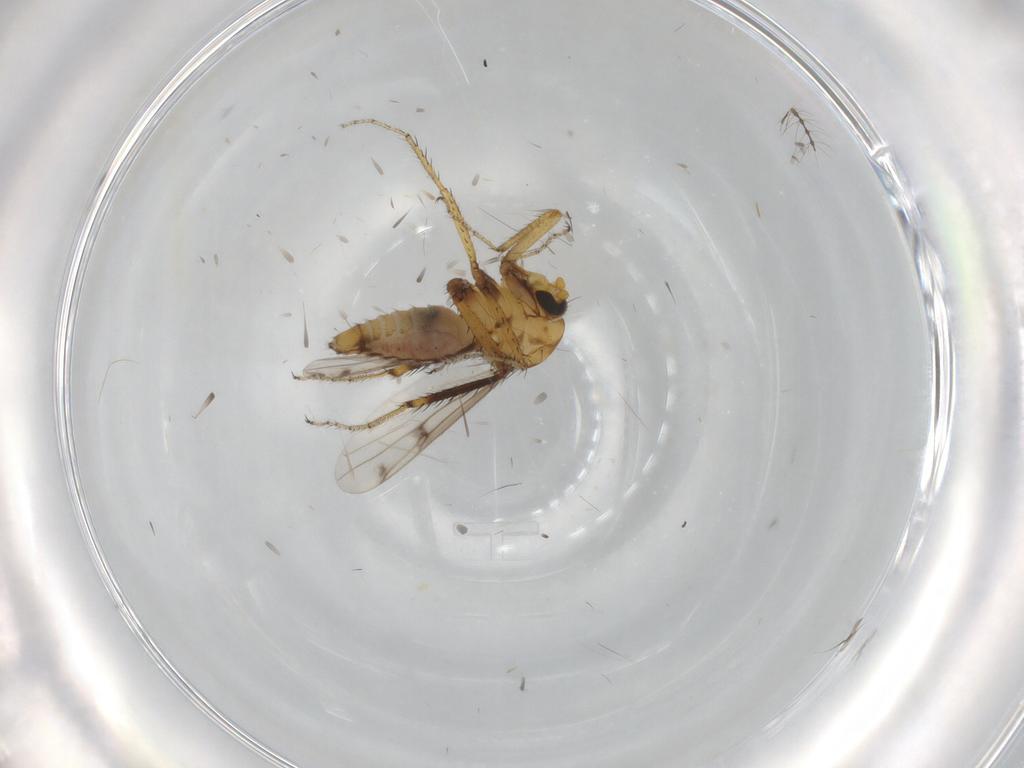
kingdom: Animalia
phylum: Arthropoda
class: Insecta
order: Diptera
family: Ceratopogonidae
